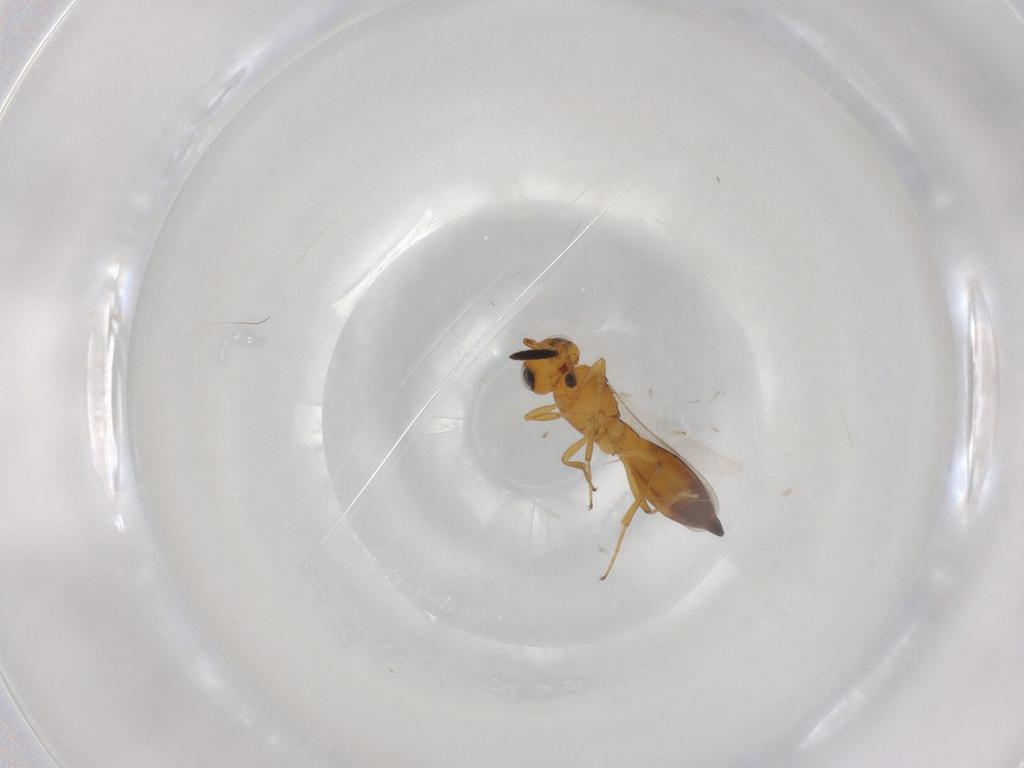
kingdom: Animalia
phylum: Arthropoda
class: Insecta
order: Hymenoptera
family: Scelionidae
